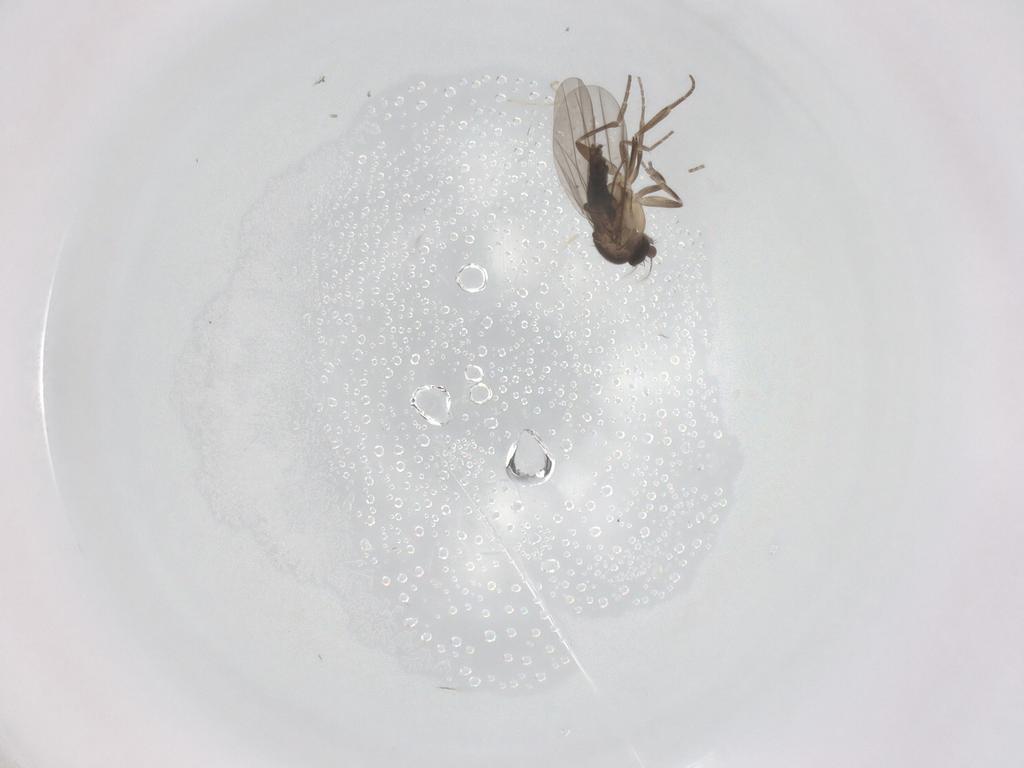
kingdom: Animalia
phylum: Arthropoda
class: Insecta
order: Diptera
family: Phoridae
